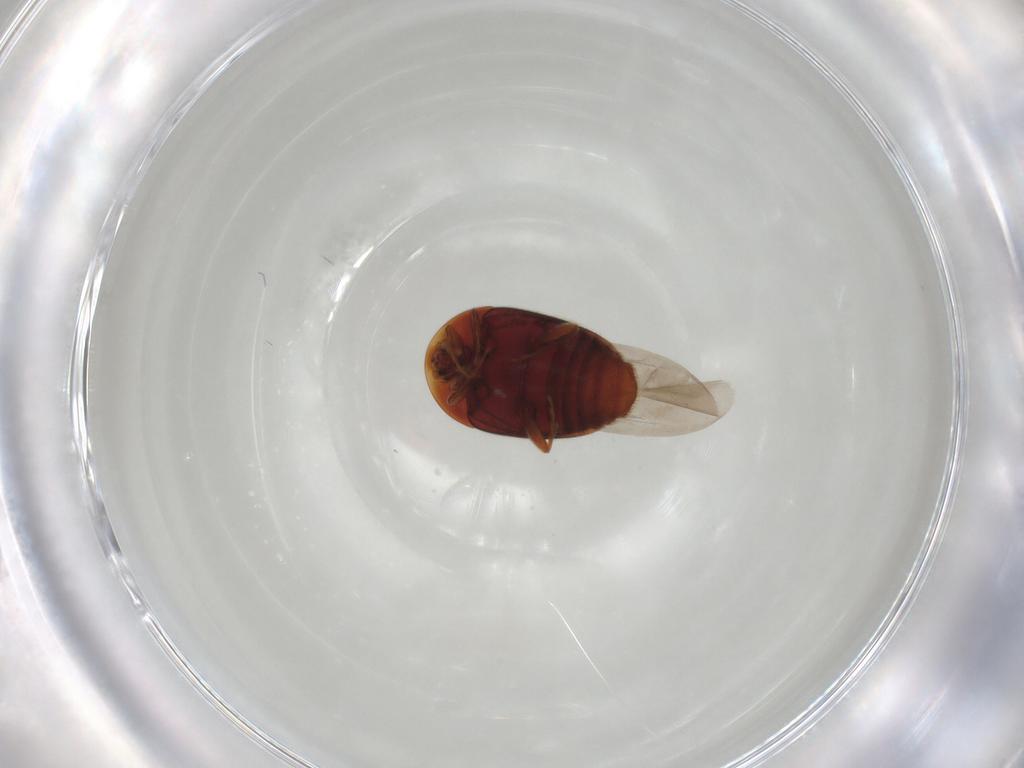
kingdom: Animalia
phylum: Arthropoda
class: Insecta
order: Coleoptera
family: Corylophidae
